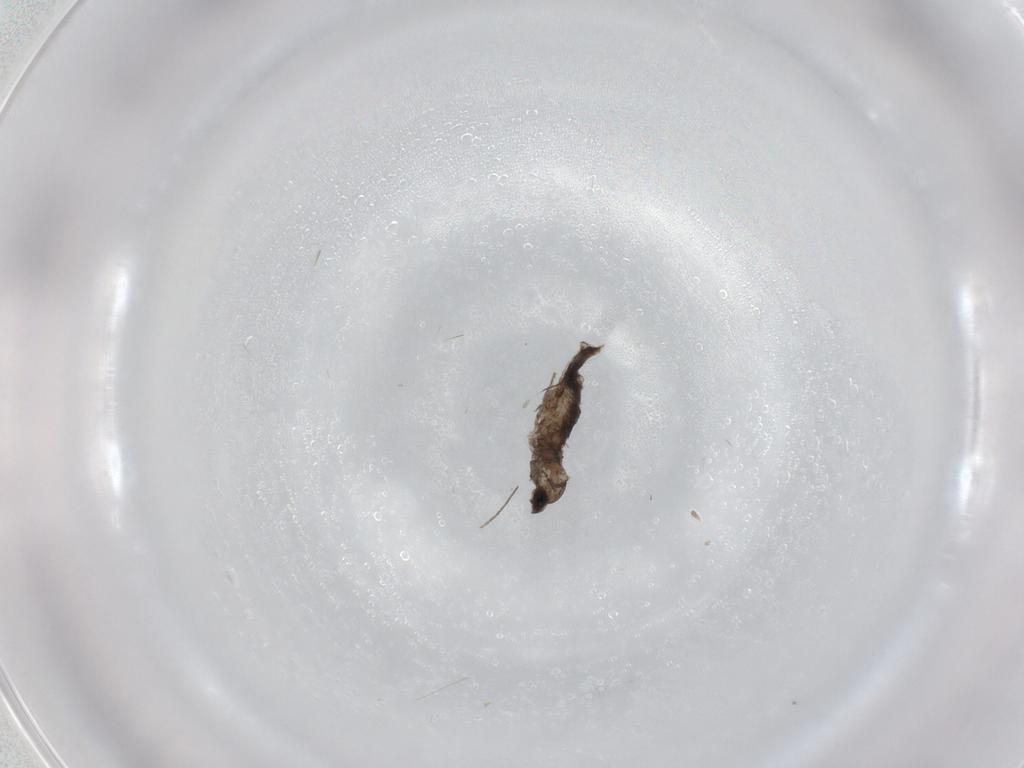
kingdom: Animalia
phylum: Arthropoda
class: Insecta
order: Diptera
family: Chironomidae
